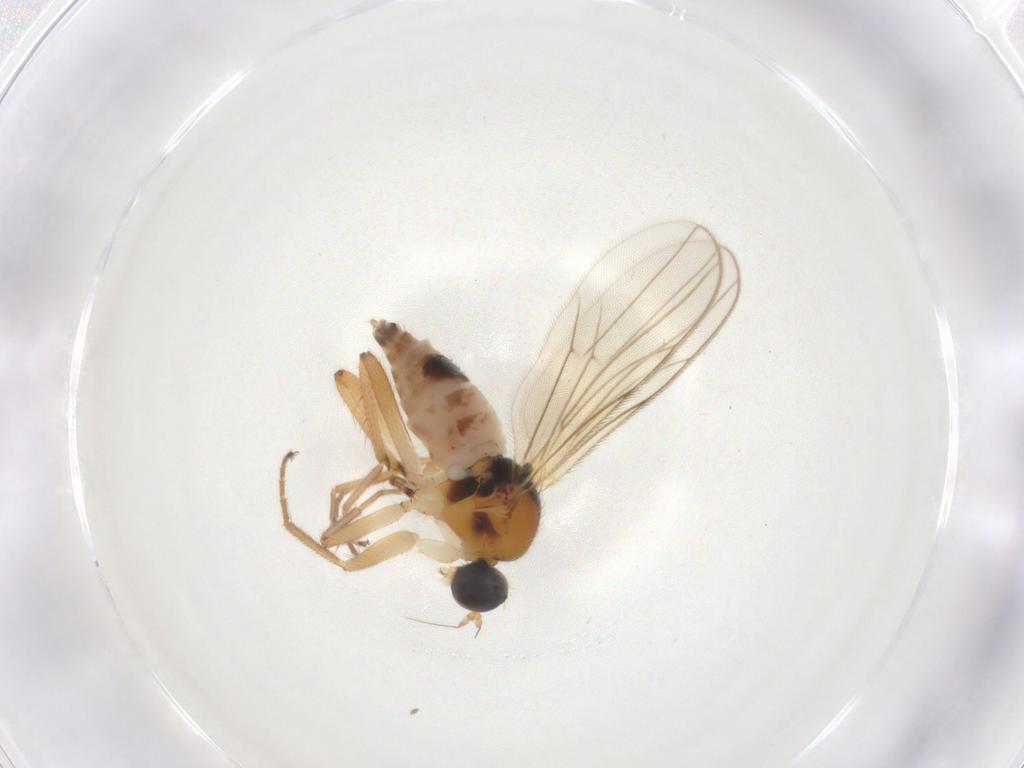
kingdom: Animalia
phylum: Arthropoda
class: Insecta
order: Diptera
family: Hybotidae
